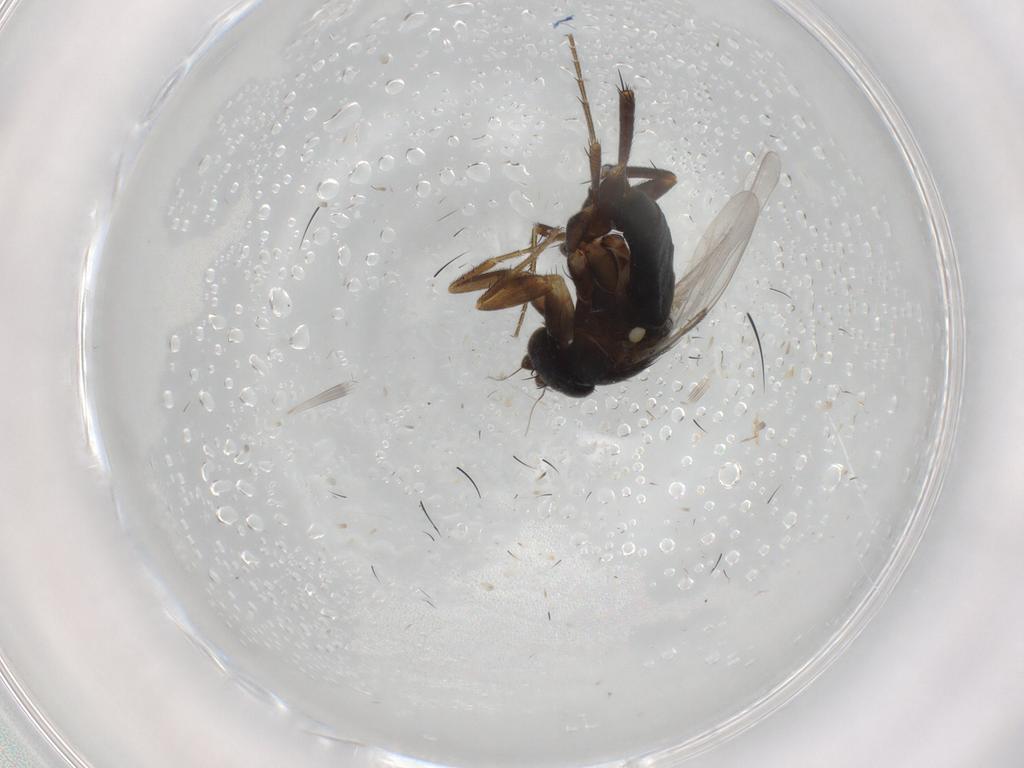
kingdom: Animalia
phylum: Arthropoda
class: Insecta
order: Diptera
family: Phoridae
